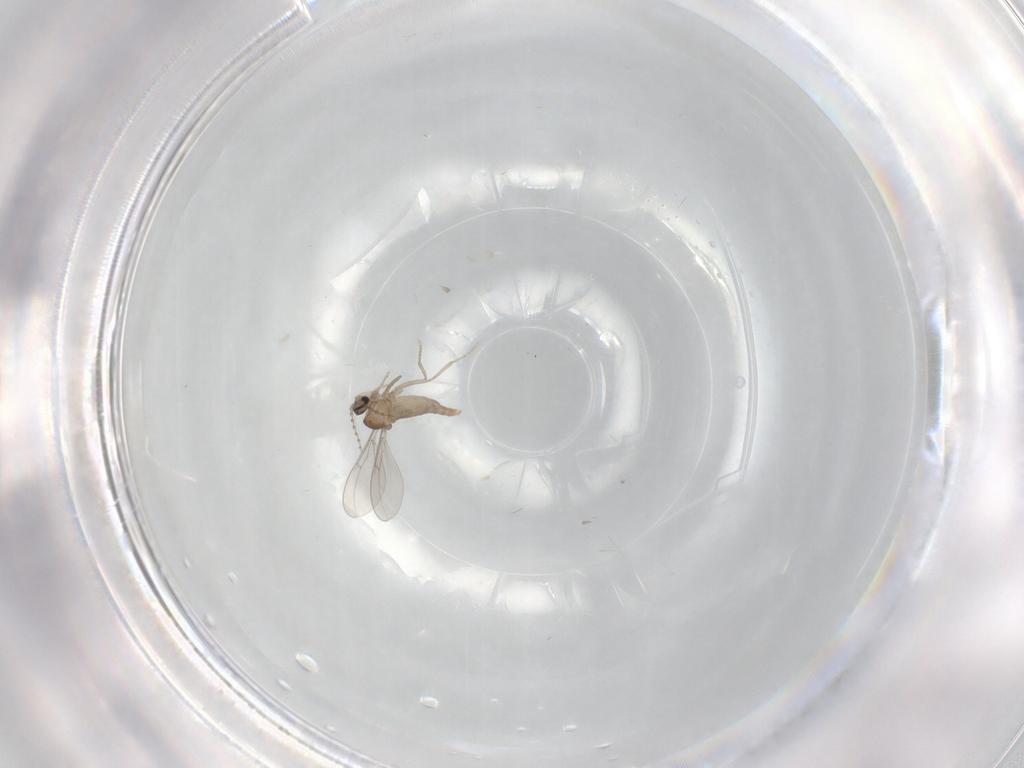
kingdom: Animalia
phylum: Arthropoda
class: Insecta
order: Diptera
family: Cecidomyiidae
